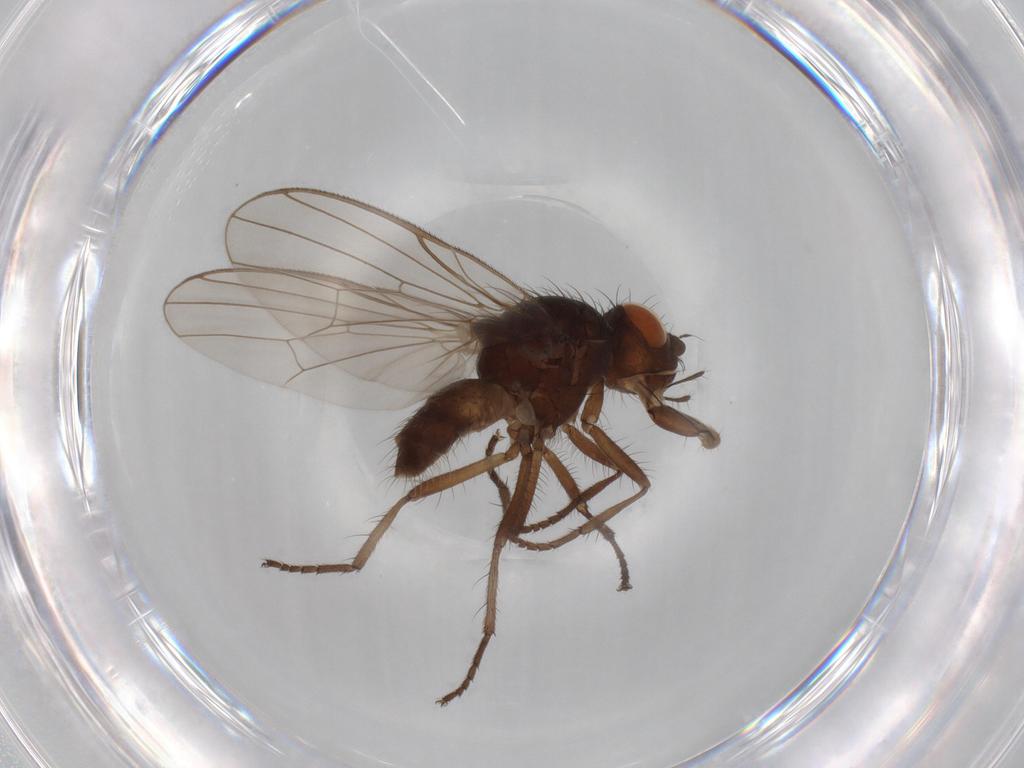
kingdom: Animalia
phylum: Arthropoda
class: Insecta
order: Diptera
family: Anthomyiidae
